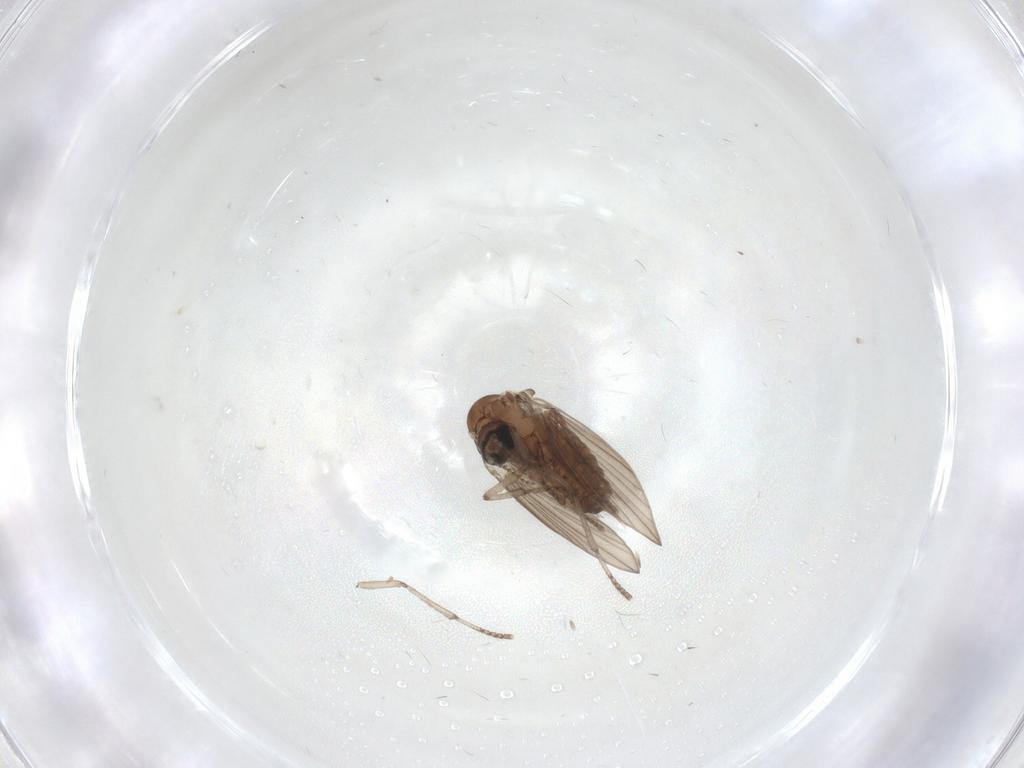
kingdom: Animalia
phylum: Arthropoda
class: Insecta
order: Diptera
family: Psychodidae
